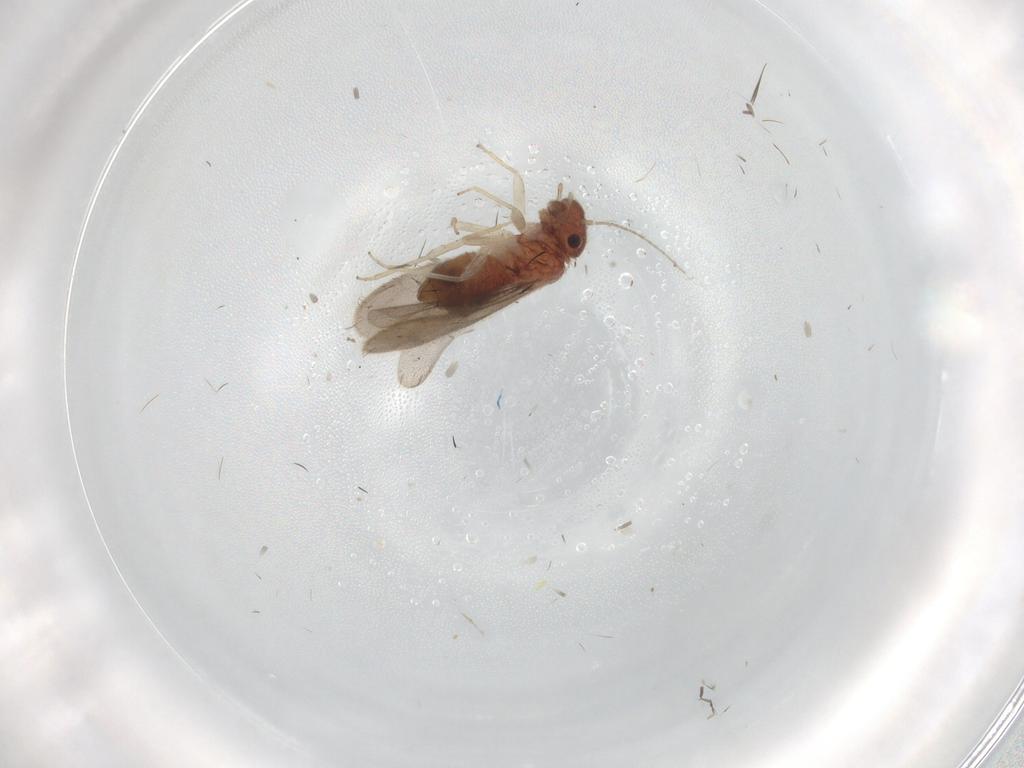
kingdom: Animalia
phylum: Arthropoda
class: Insecta
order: Psocodea
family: Archipsocidae
